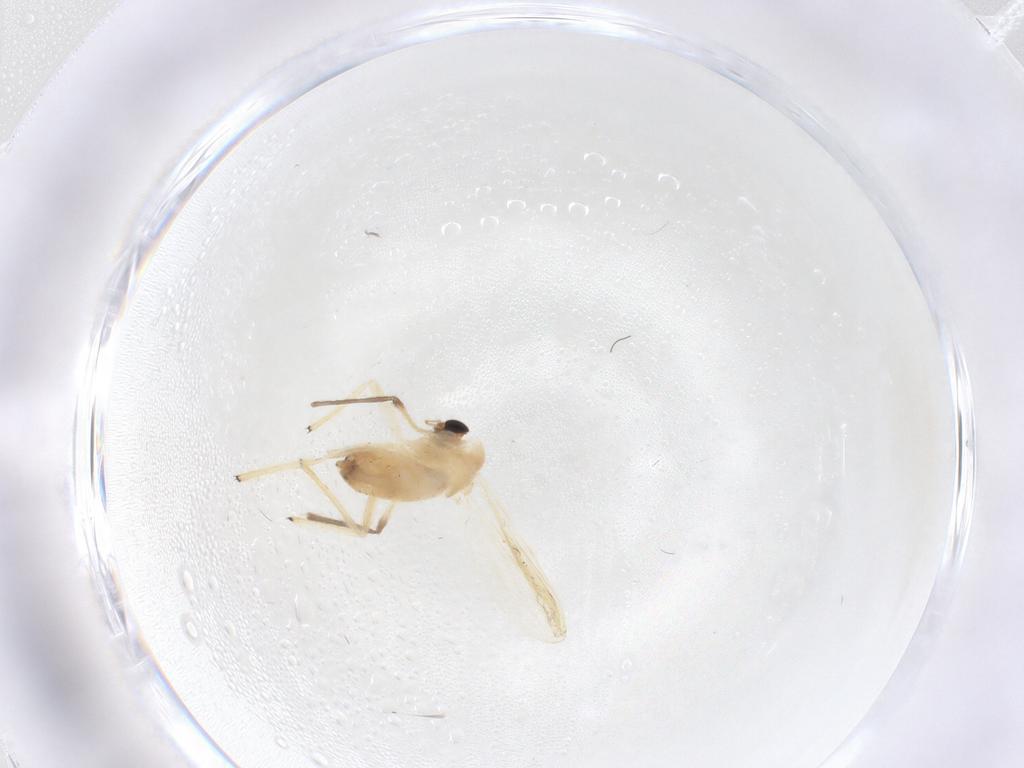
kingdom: Animalia
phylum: Arthropoda
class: Insecta
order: Diptera
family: Chironomidae
